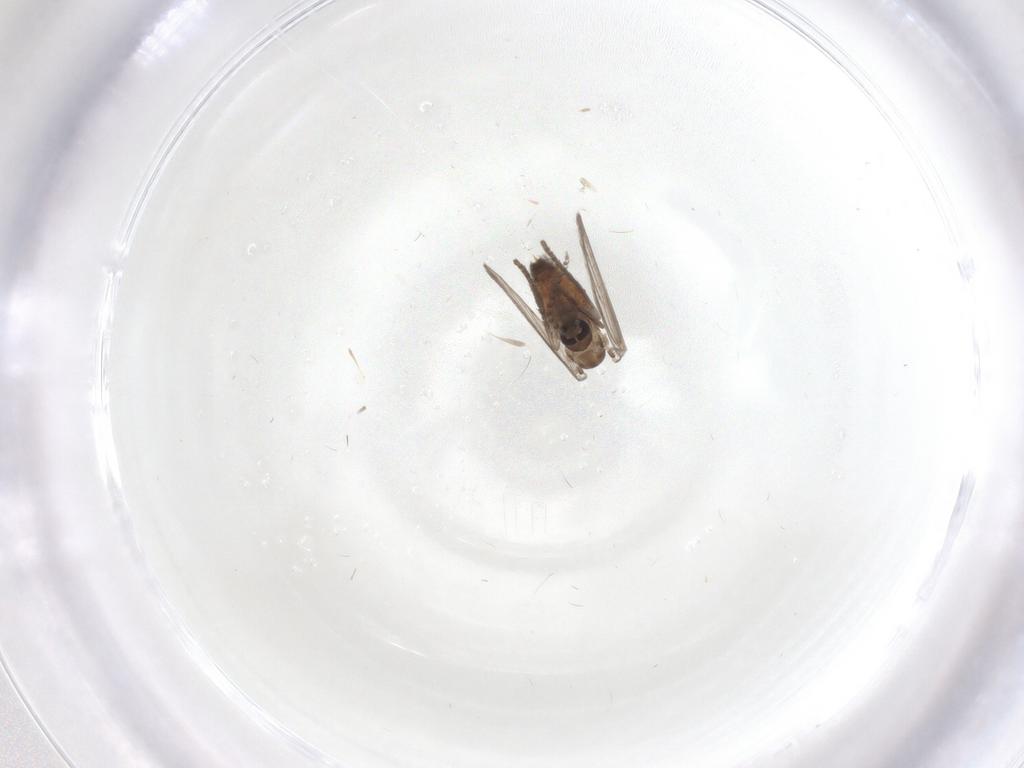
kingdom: Animalia
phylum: Arthropoda
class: Insecta
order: Diptera
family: Psychodidae
